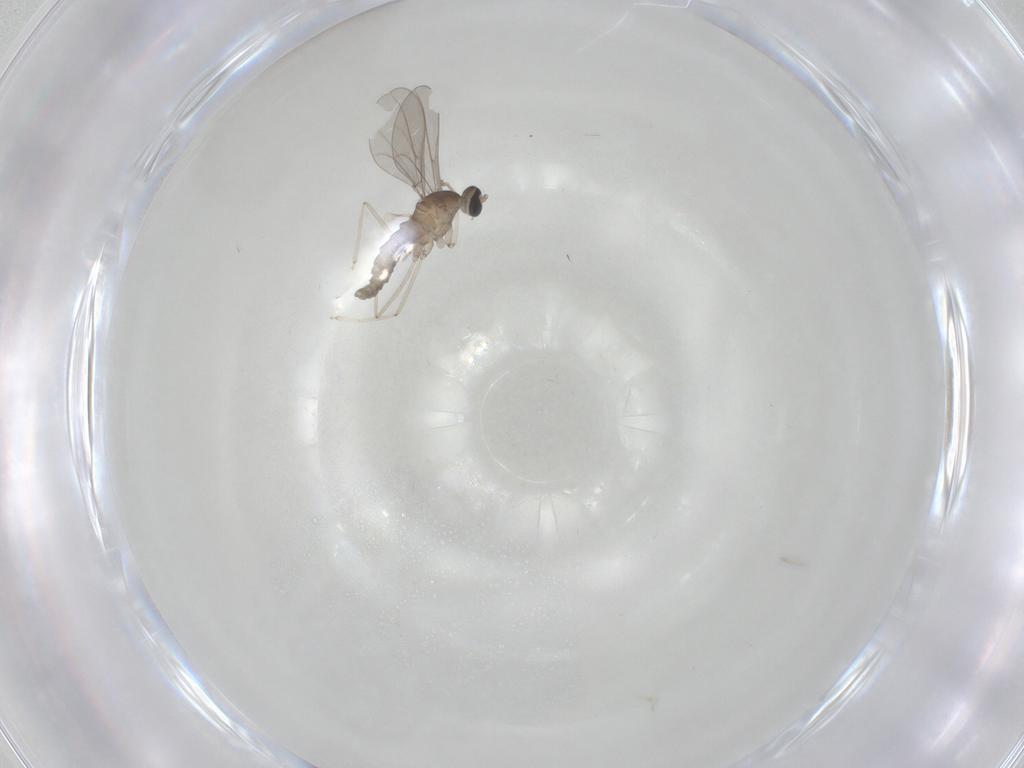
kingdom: Animalia
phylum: Arthropoda
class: Insecta
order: Diptera
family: Cecidomyiidae
